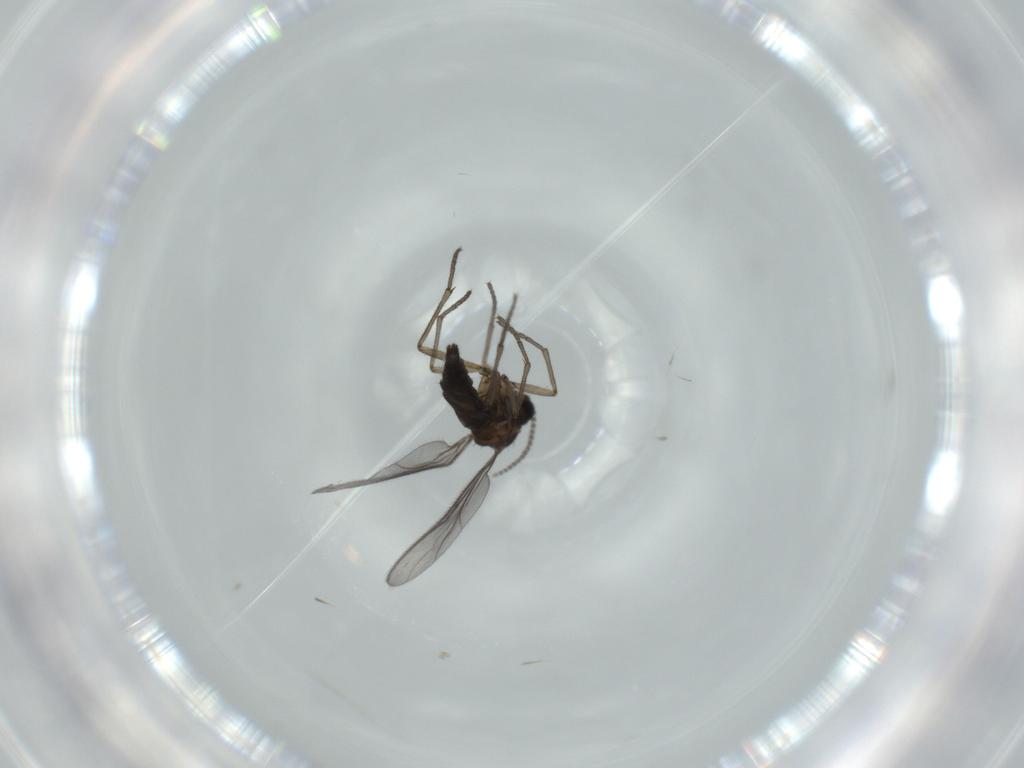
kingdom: Animalia
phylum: Arthropoda
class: Insecta
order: Diptera
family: Sciaridae
